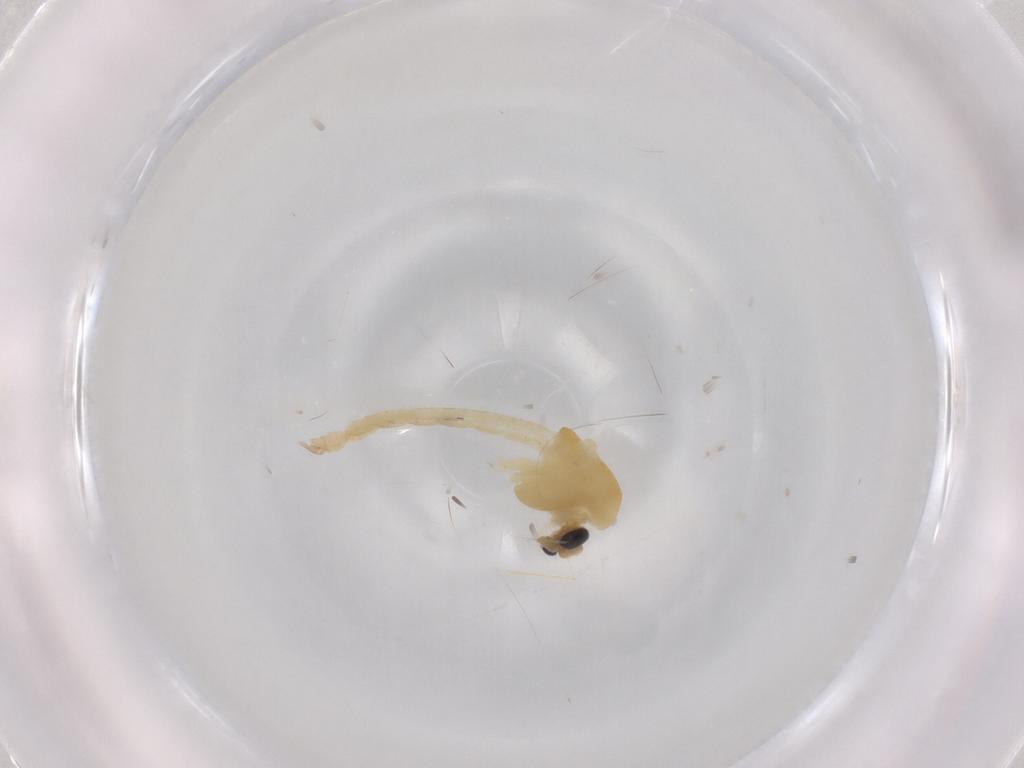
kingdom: Animalia
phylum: Arthropoda
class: Insecta
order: Diptera
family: Chironomidae
